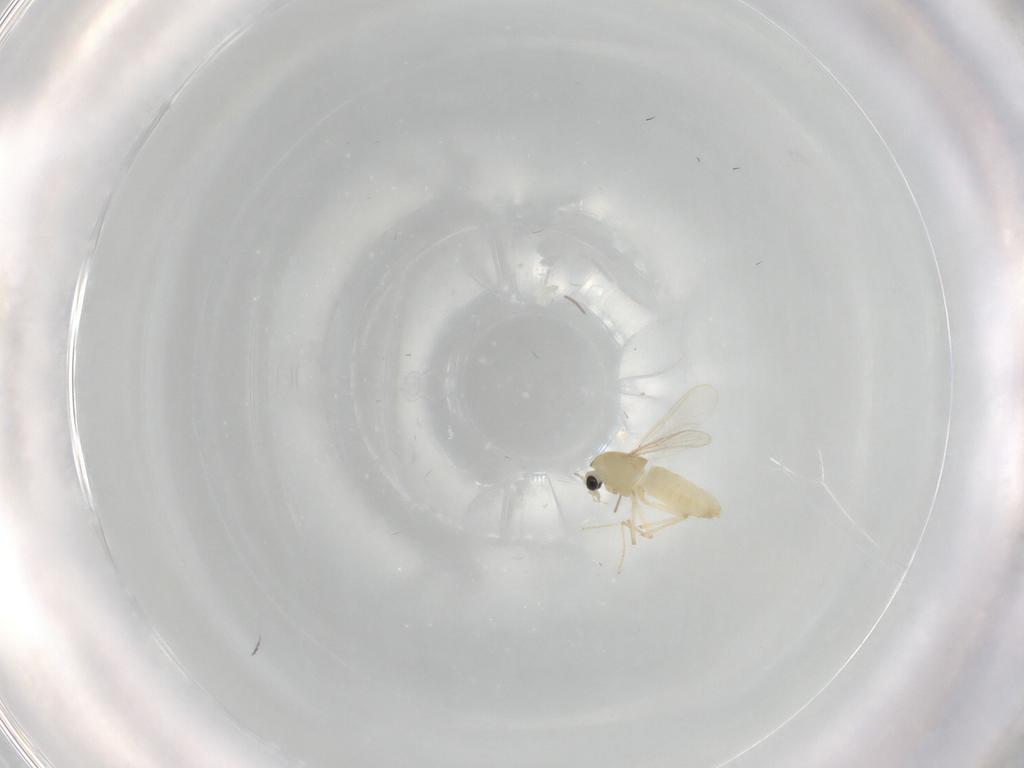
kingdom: Animalia
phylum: Arthropoda
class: Insecta
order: Diptera
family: Chironomidae
